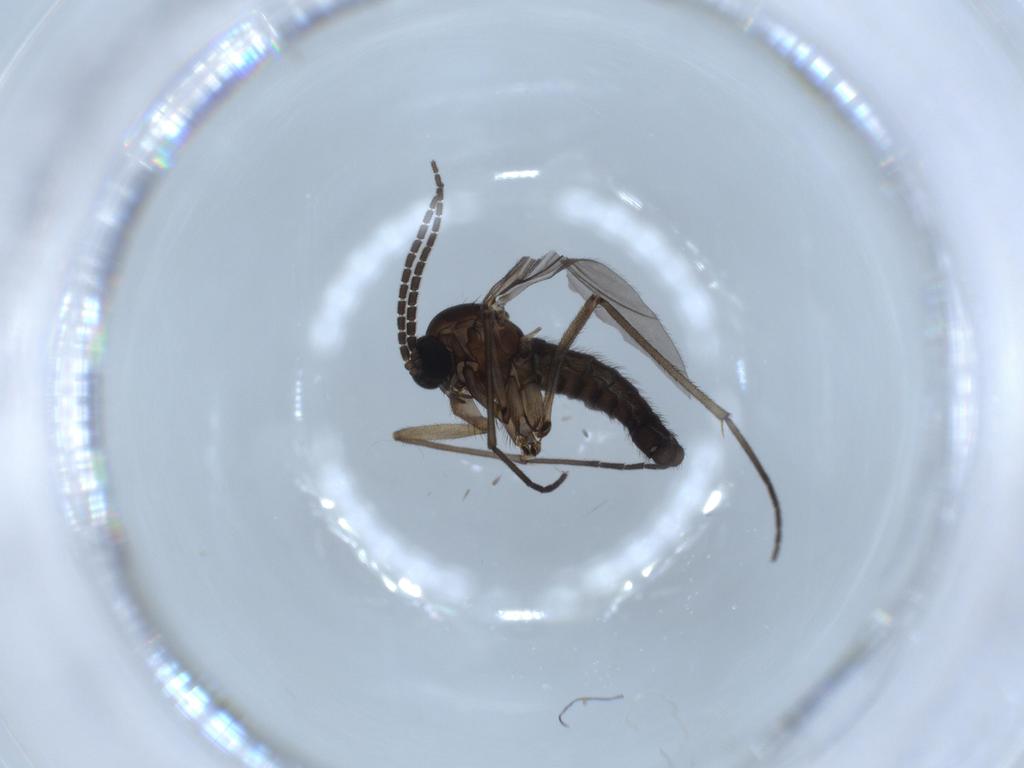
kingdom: Animalia
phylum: Arthropoda
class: Insecta
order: Diptera
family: Sciaridae
